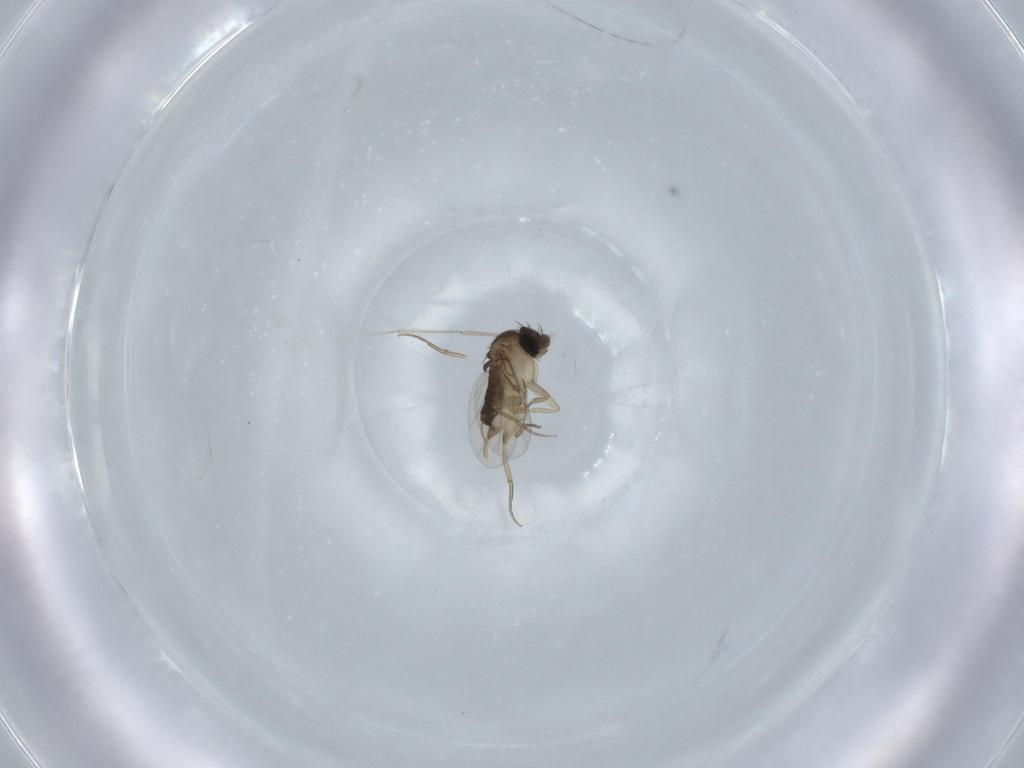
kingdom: Animalia
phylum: Arthropoda
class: Insecta
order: Diptera
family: Phoridae
